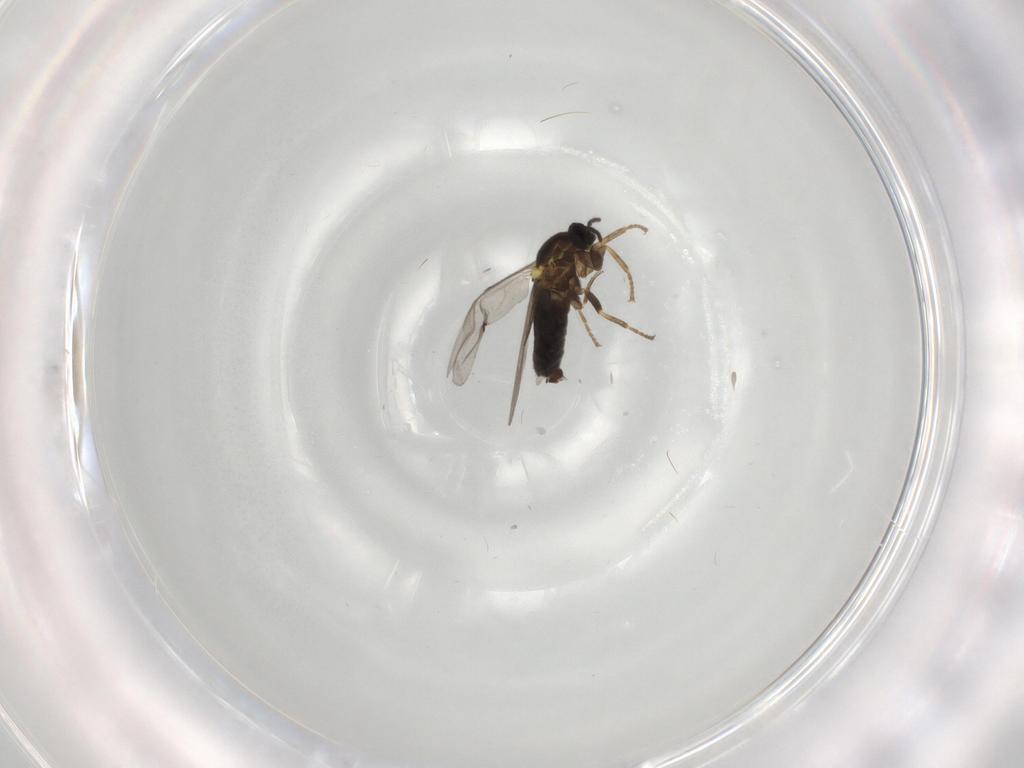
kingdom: Animalia
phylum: Arthropoda
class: Insecta
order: Diptera
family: Scatopsidae
